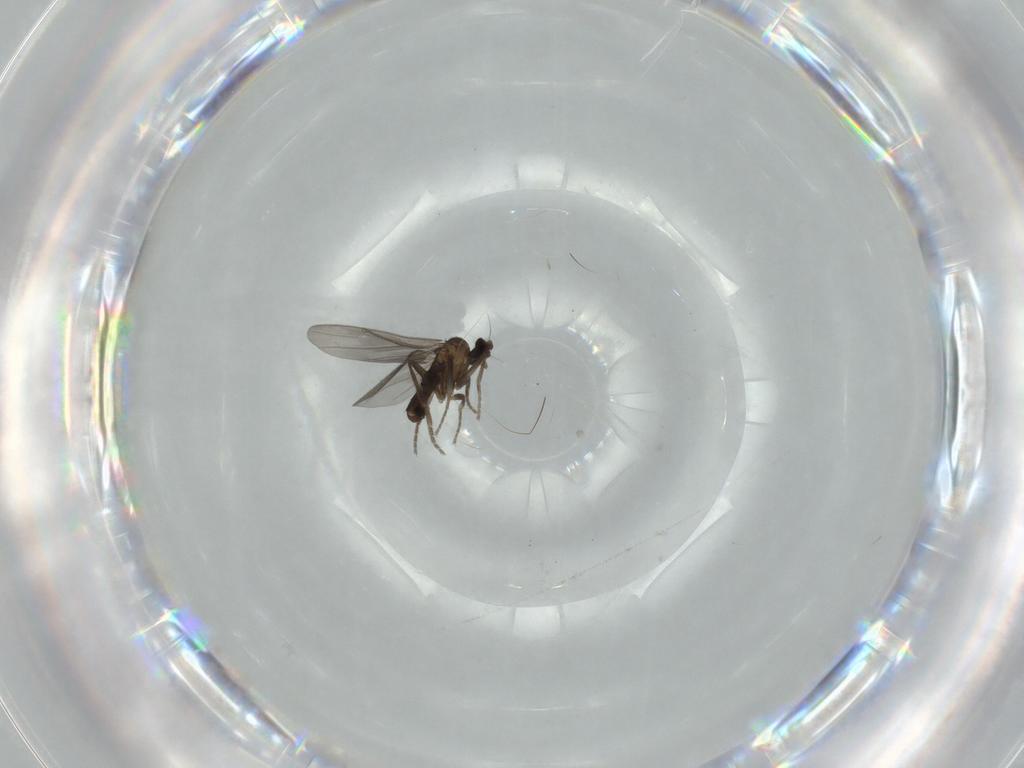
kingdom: Animalia
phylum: Arthropoda
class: Insecta
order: Diptera
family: Phoridae
